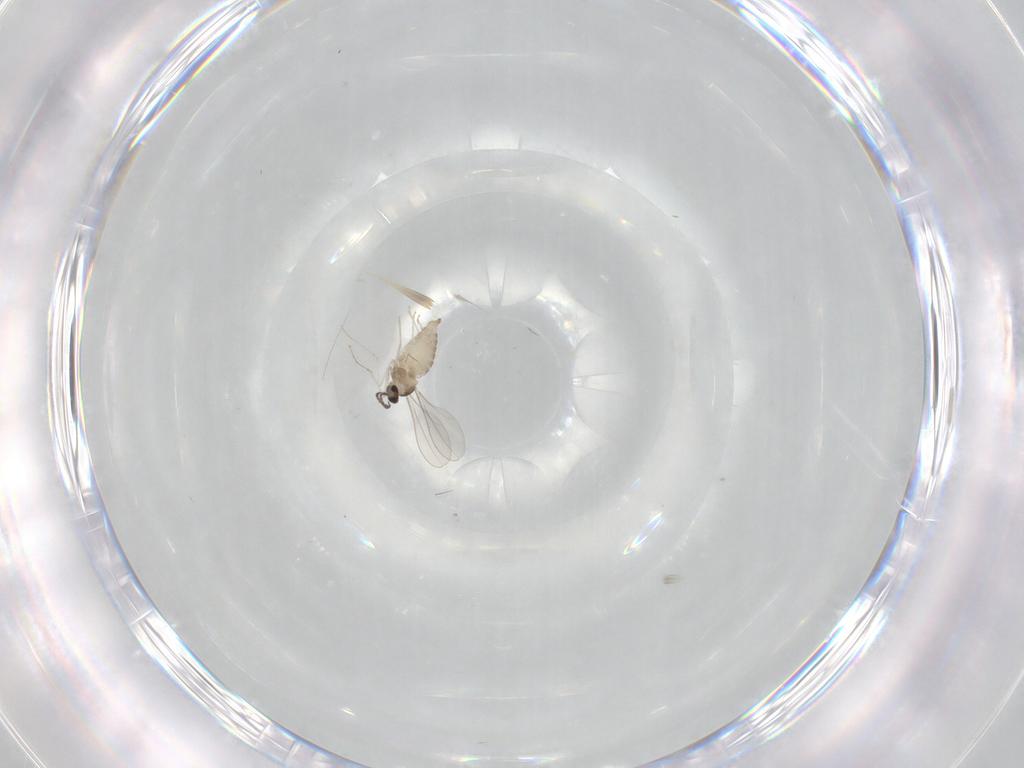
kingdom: Animalia
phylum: Arthropoda
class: Insecta
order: Diptera
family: Cecidomyiidae
